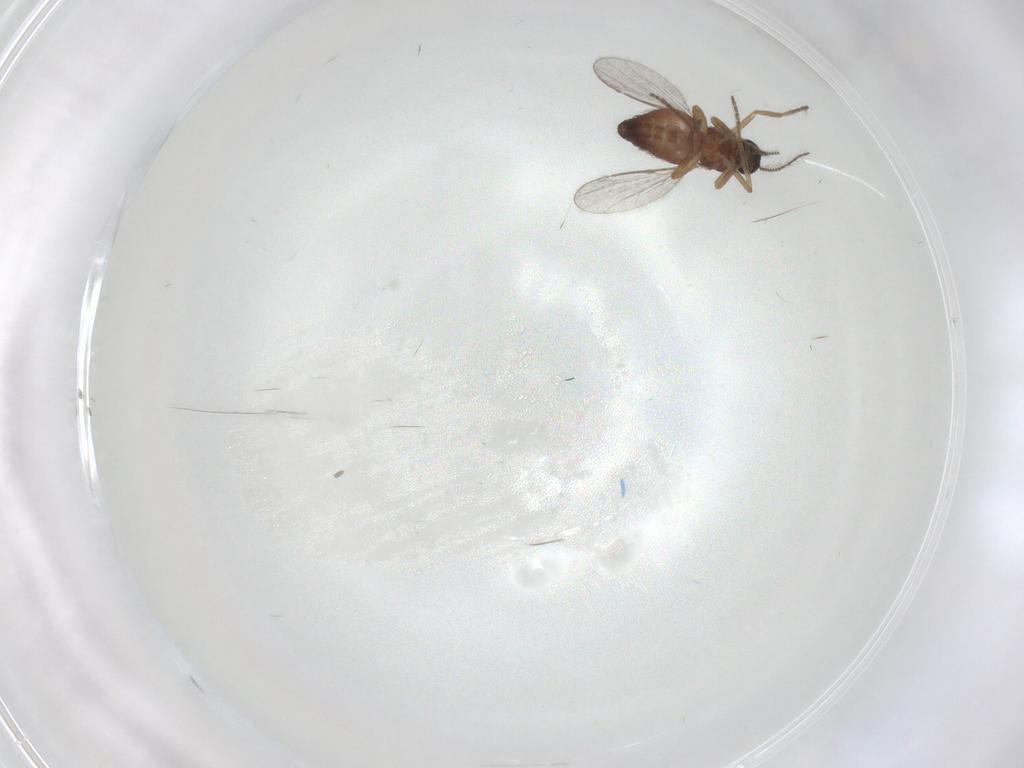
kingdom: Animalia
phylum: Arthropoda
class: Insecta
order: Diptera
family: Ceratopogonidae
